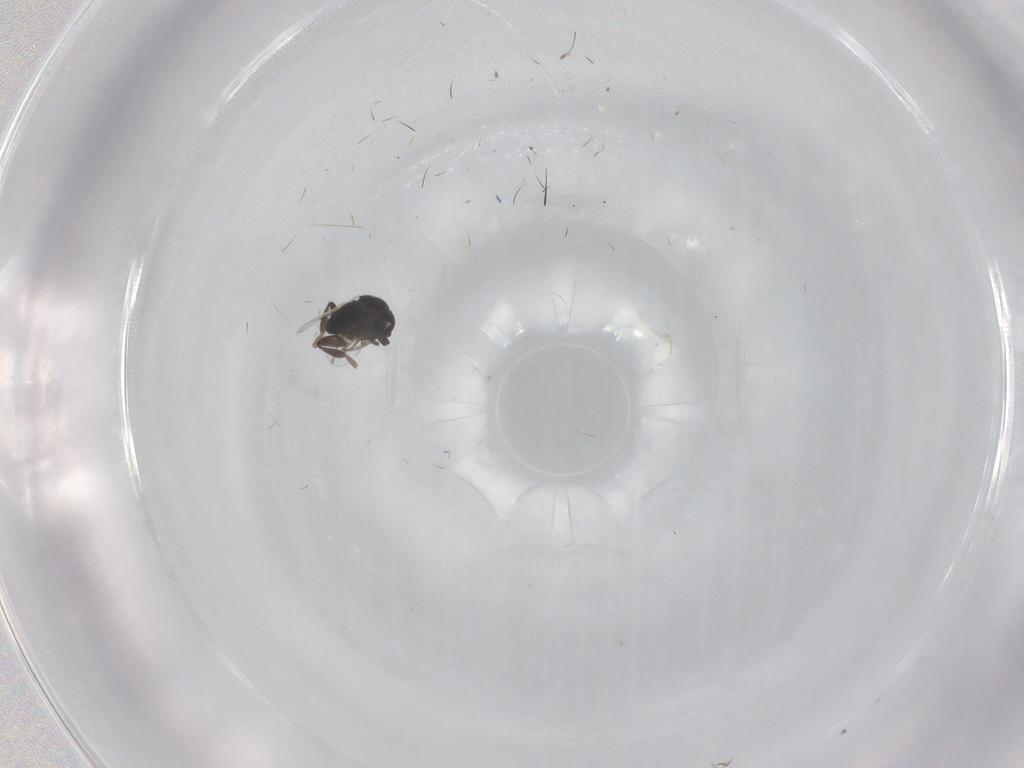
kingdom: Animalia
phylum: Arthropoda
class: Insecta
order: Diptera
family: Phoridae
